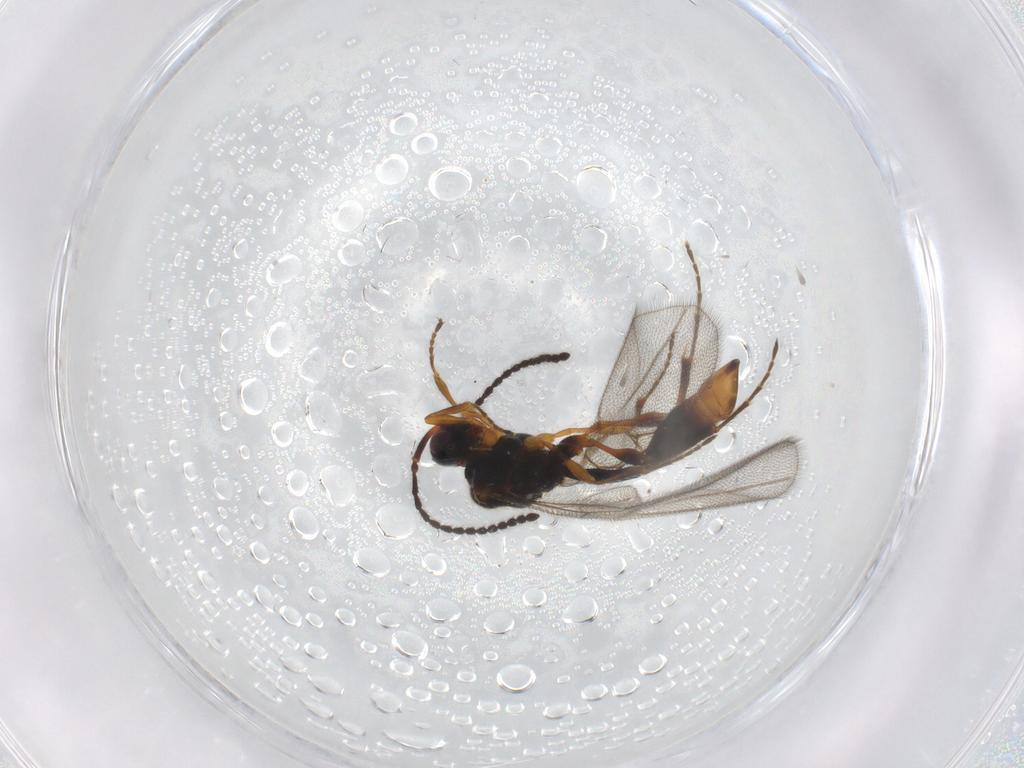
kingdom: Animalia
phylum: Arthropoda
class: Insecta
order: Hymenoptera
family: Diapriidae
